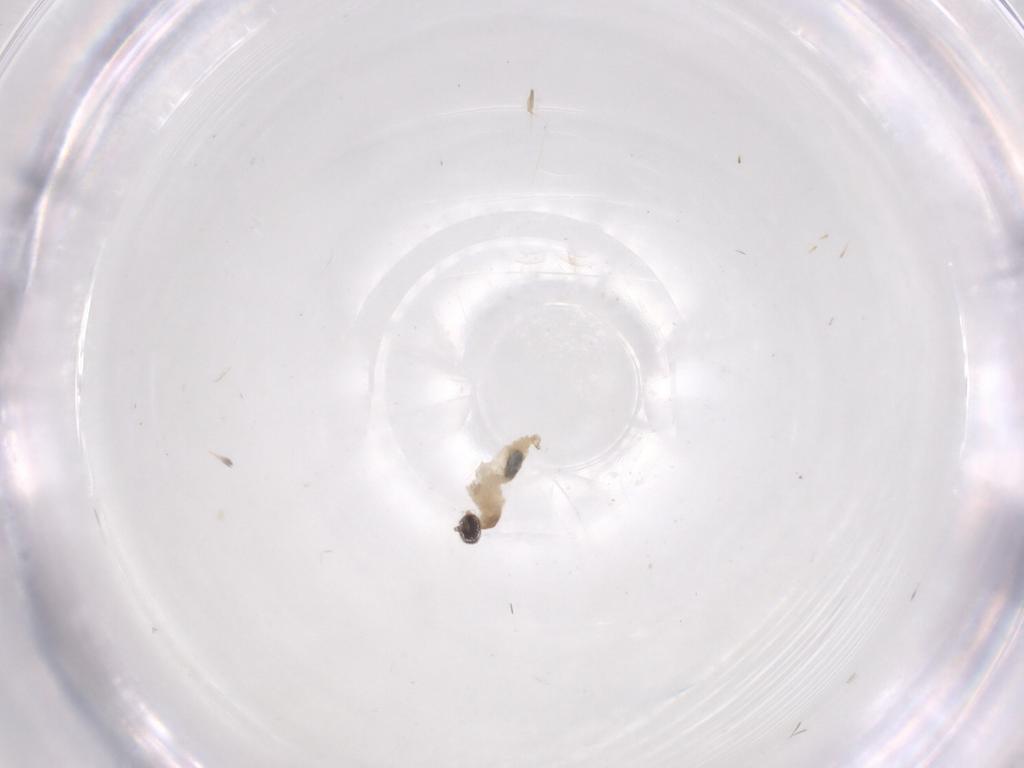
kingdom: Animalia
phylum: Arthropoda
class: Insecta
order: Diptera
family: Cecidomyiidae
